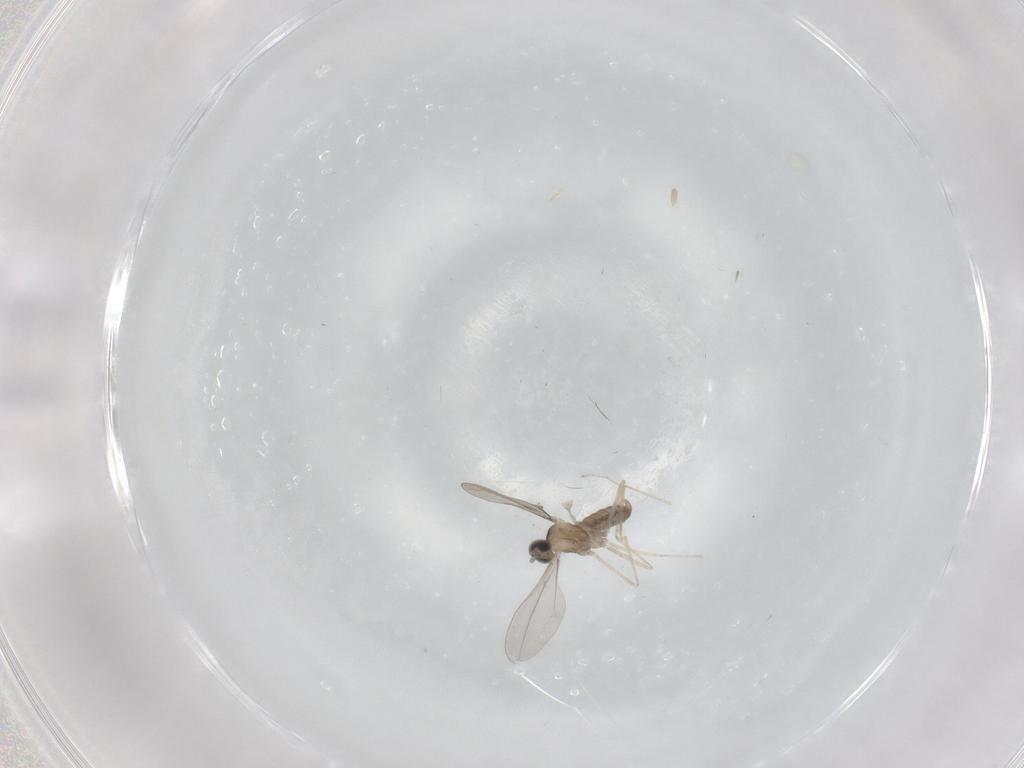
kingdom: Animalia
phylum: Arthropoda
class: Insecta
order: Diptera
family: Cecidomyiidae
